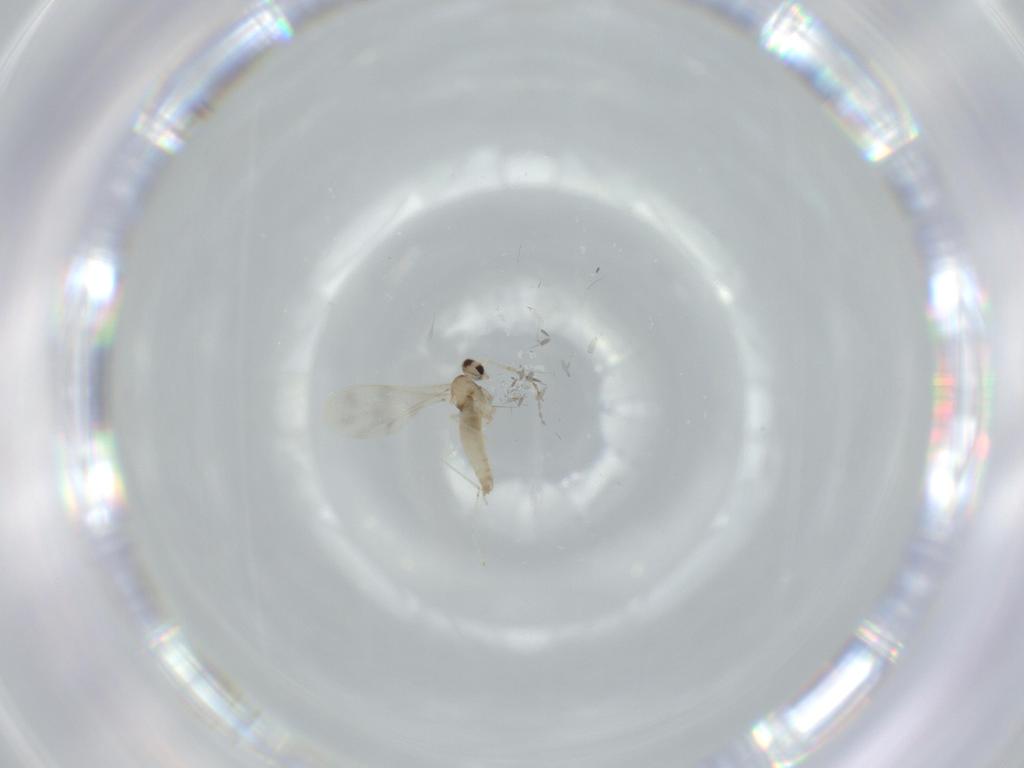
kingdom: Animalia
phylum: Arthropoda
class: Insecta
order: Diptera
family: Cecidomyiidae
